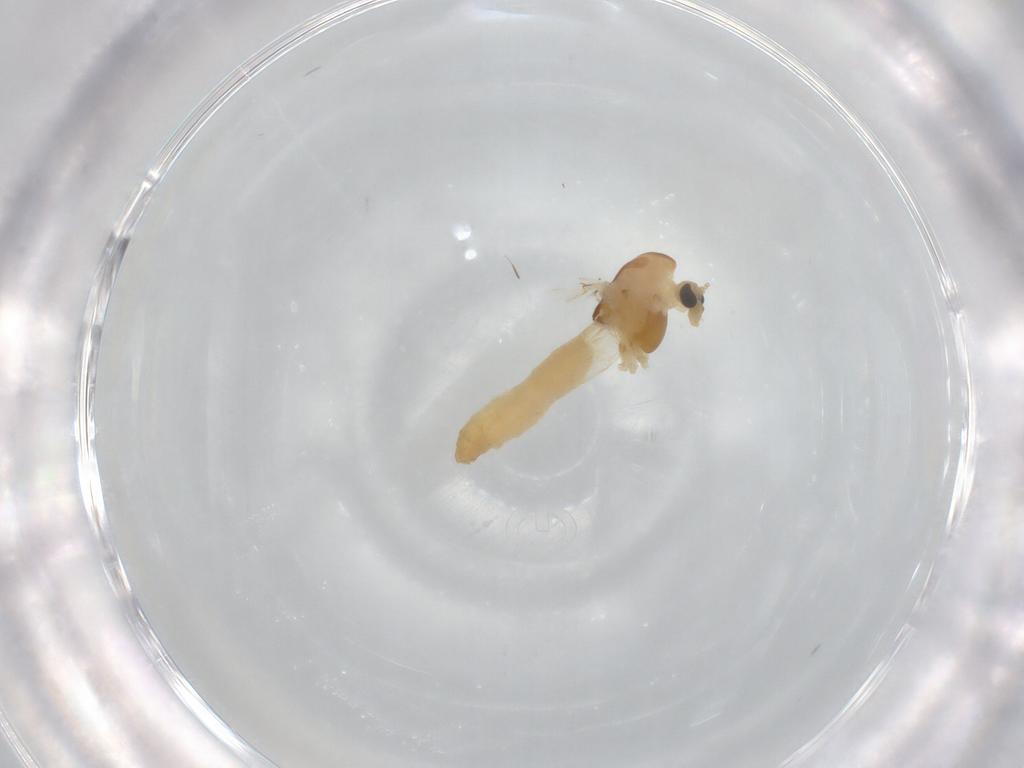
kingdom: Animalia
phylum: Arthropoda
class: Insecta
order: Diptera
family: Chironomidae
